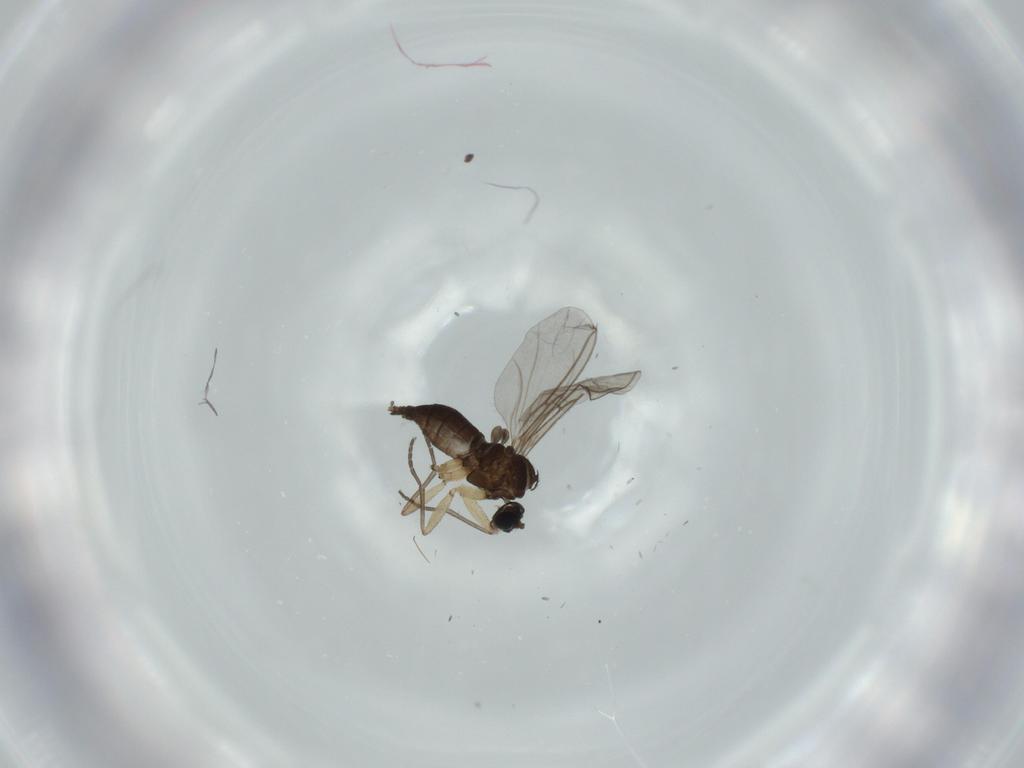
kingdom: Animalia
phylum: Arthropoda
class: Insecta
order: Diptera
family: Sciaridae
